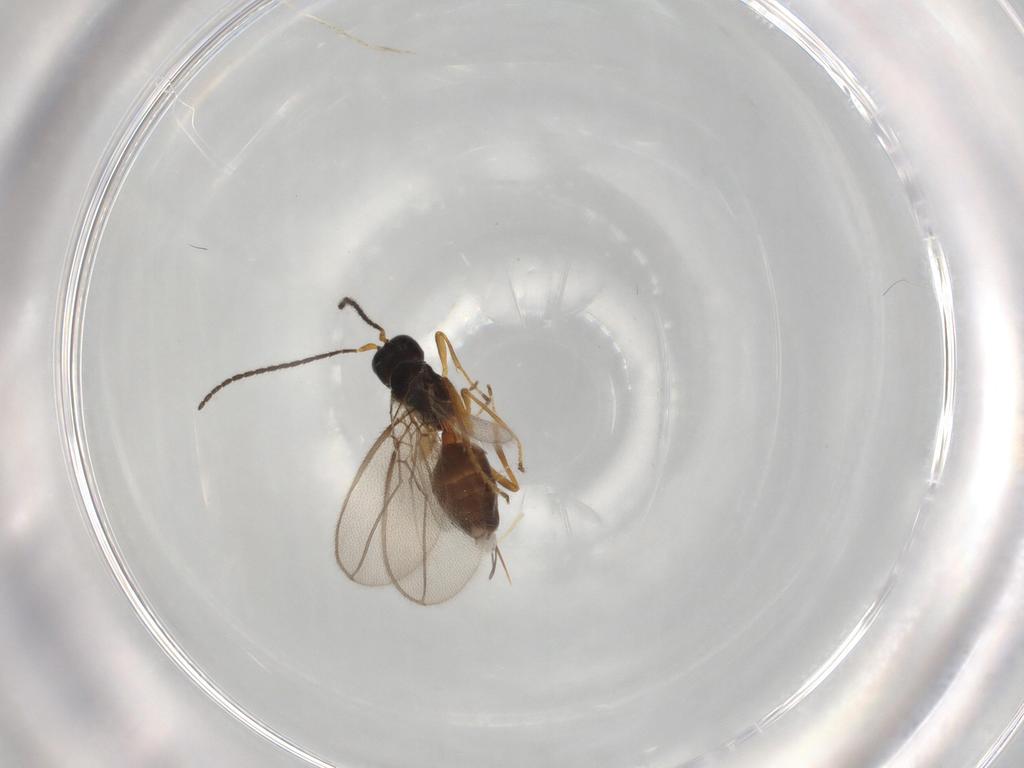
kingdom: Animalia
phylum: Arthropoda
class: Insecta
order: Hymenoptera
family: Braconidae
